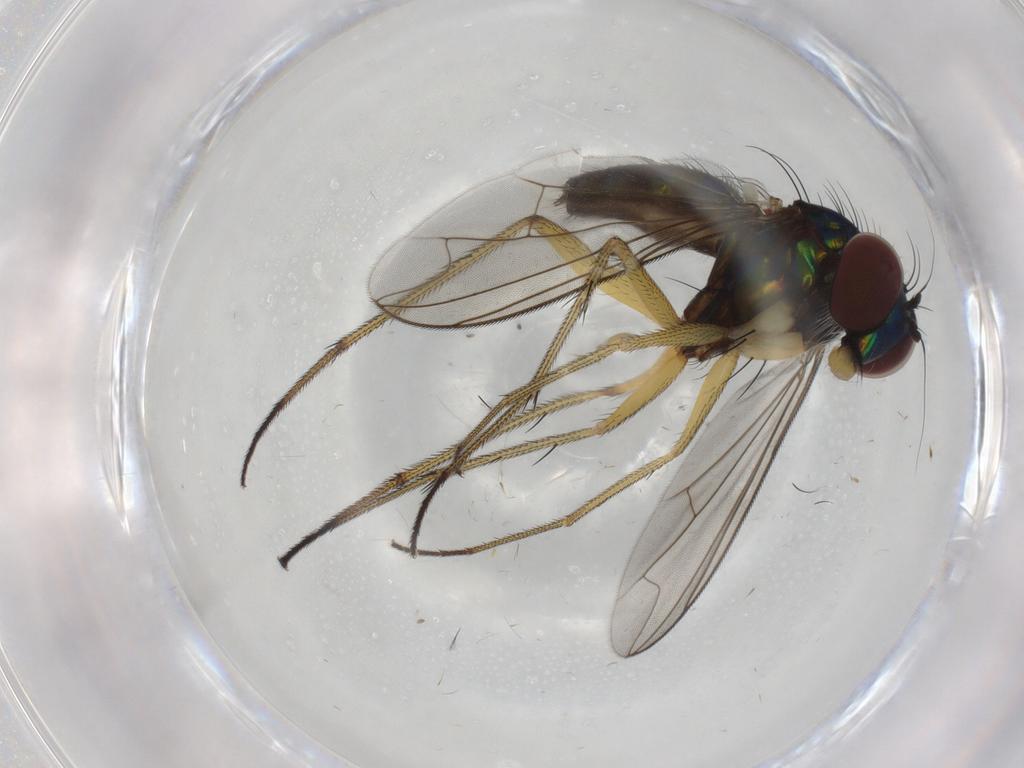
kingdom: Animalia
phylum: Arthropoda
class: Insecta
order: Diptera
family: Dolichopodidae
